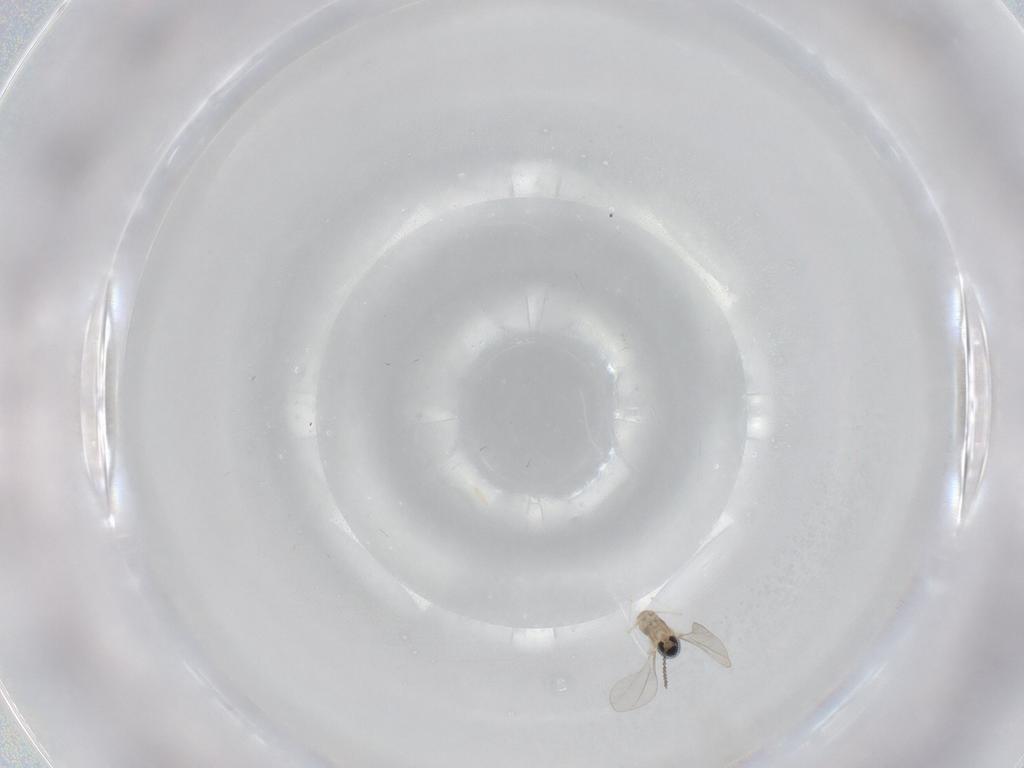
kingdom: Animalia
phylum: Arthropoda
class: Insecta
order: Diptera
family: Cecidomyiidae
